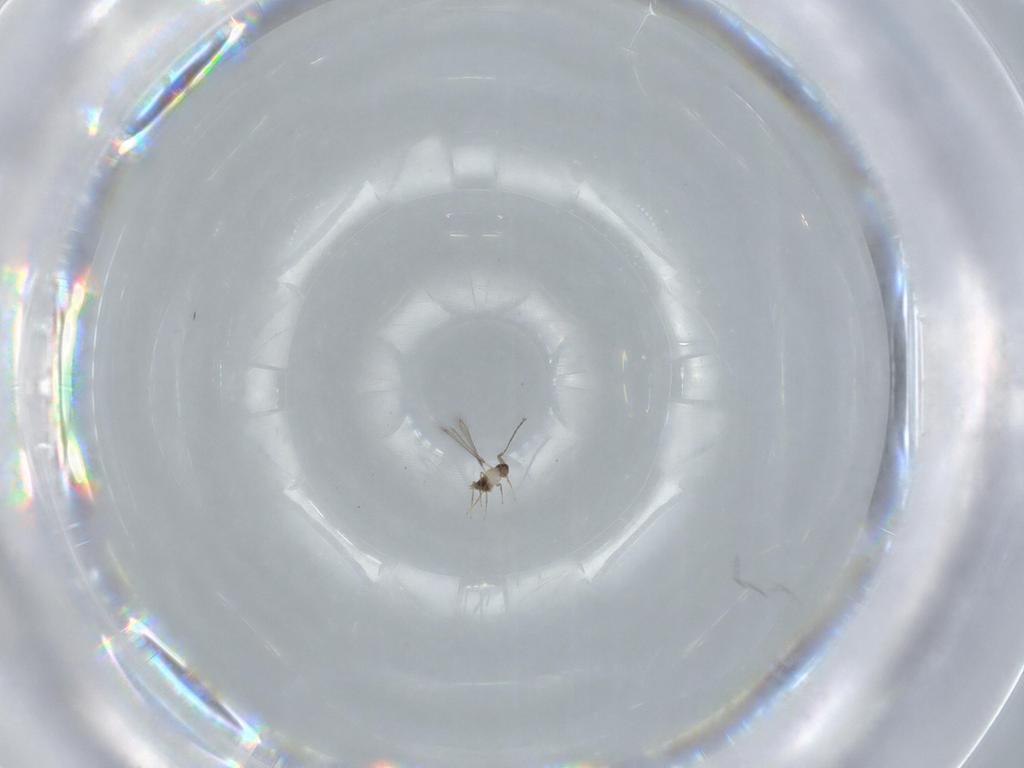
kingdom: Animalia
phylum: Arthropoda
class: Insecta
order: Hymenoptera
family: Mymaridae
